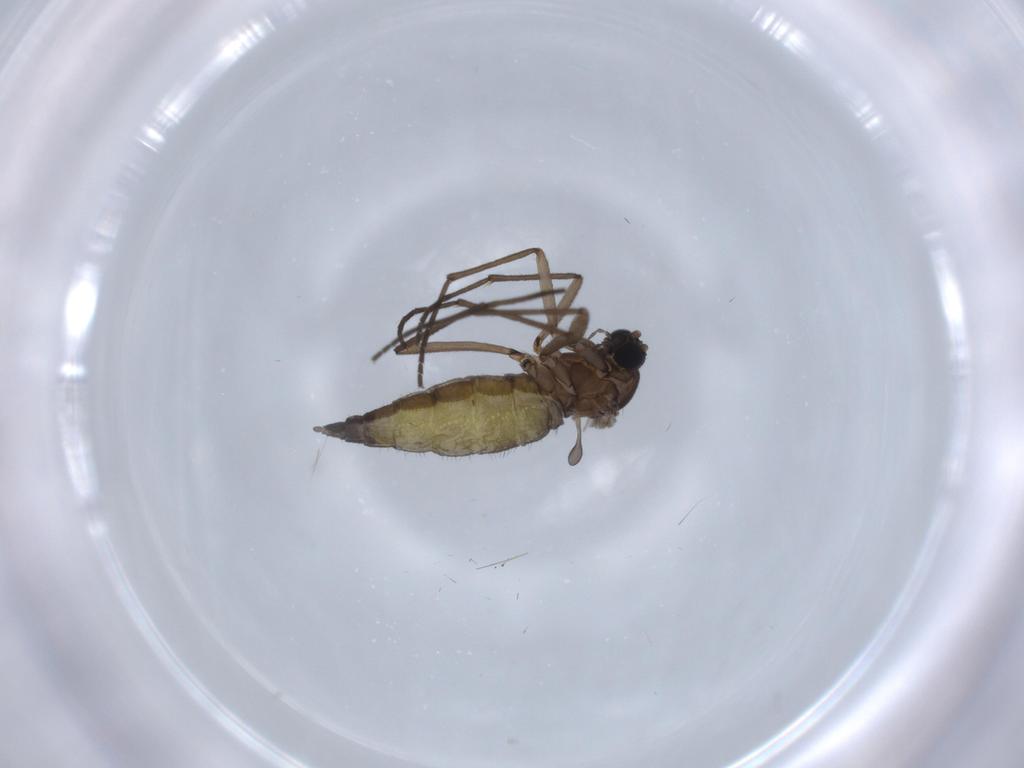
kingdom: Animalia
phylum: Arthropoda
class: Insecta
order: Diptera
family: Sciaridae
